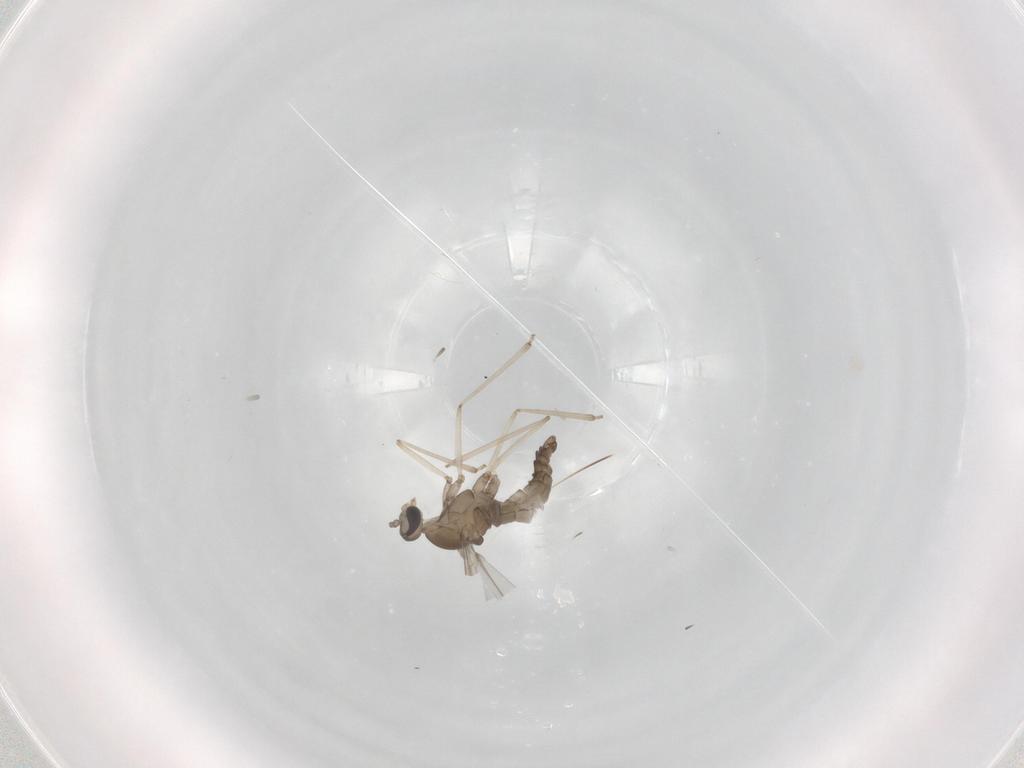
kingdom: Animalia
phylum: Arthropoda
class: Insecta
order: Diptera
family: Cecidomyiidae
